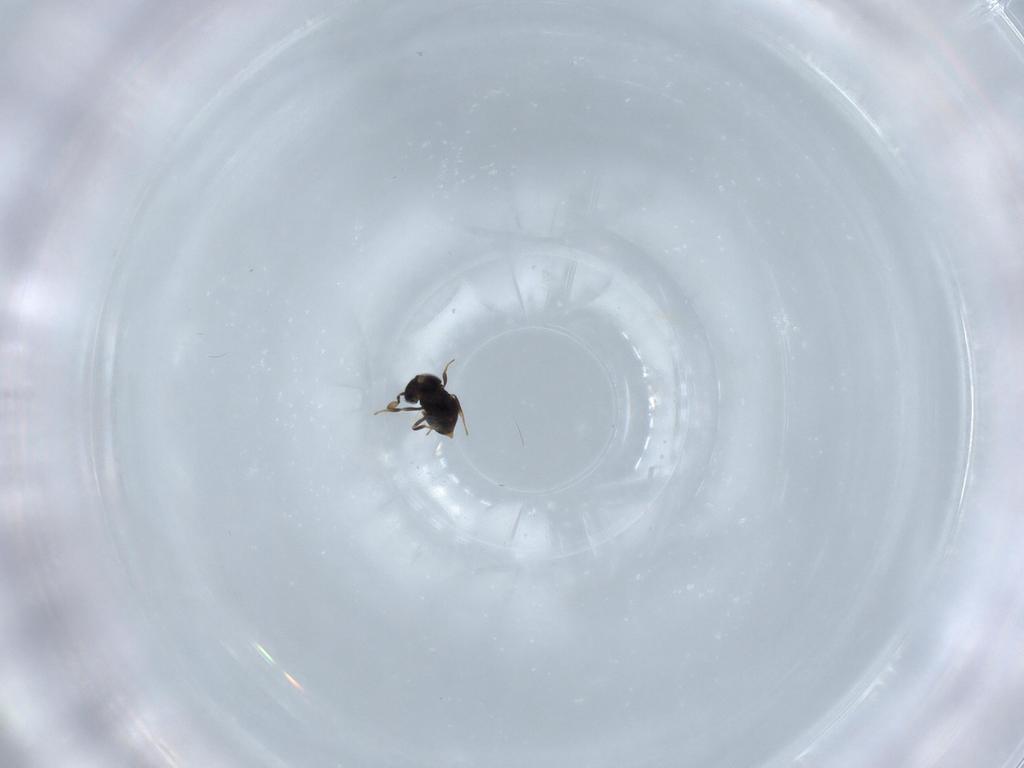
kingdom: Animalia
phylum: Arthropoda
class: Insecta
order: Hymenoptera
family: Scelionidae
